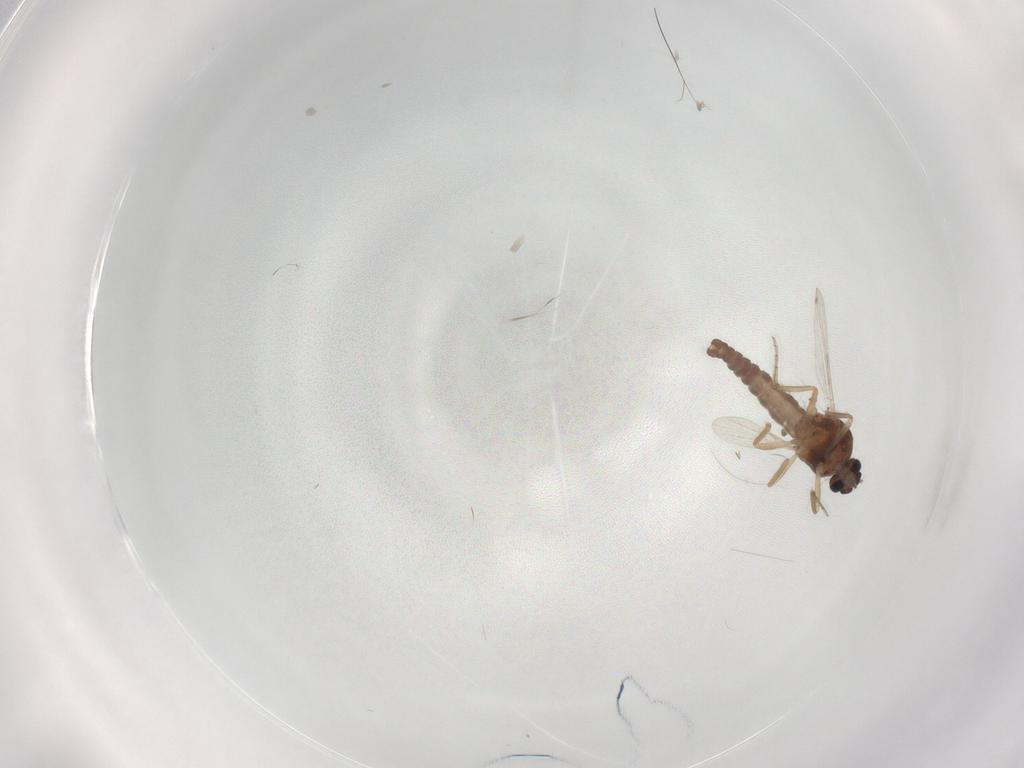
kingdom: Animalia
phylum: Arthropoda
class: Insecta
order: Diptera
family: Ceratopogonidae
